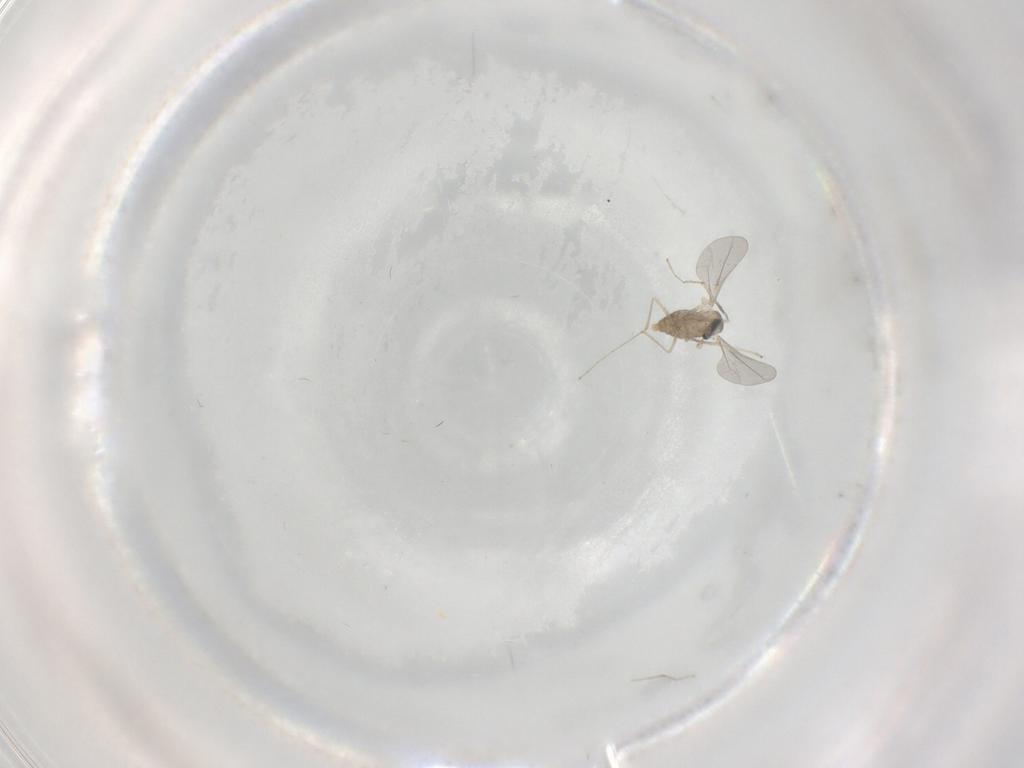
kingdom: Animalia
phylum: Arthropoda
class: Insecta
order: Diptera
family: Cecidomyiidae
